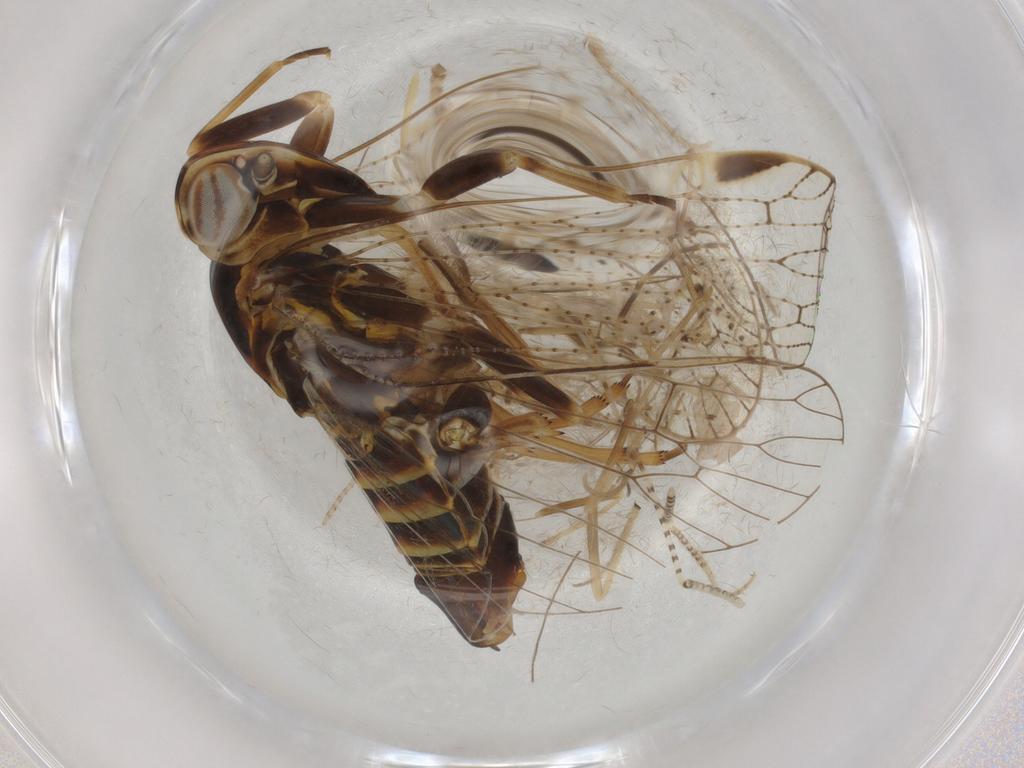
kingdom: Animalia
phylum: Arthropoda
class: Insecta
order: Hemiptera
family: Cixiidae
